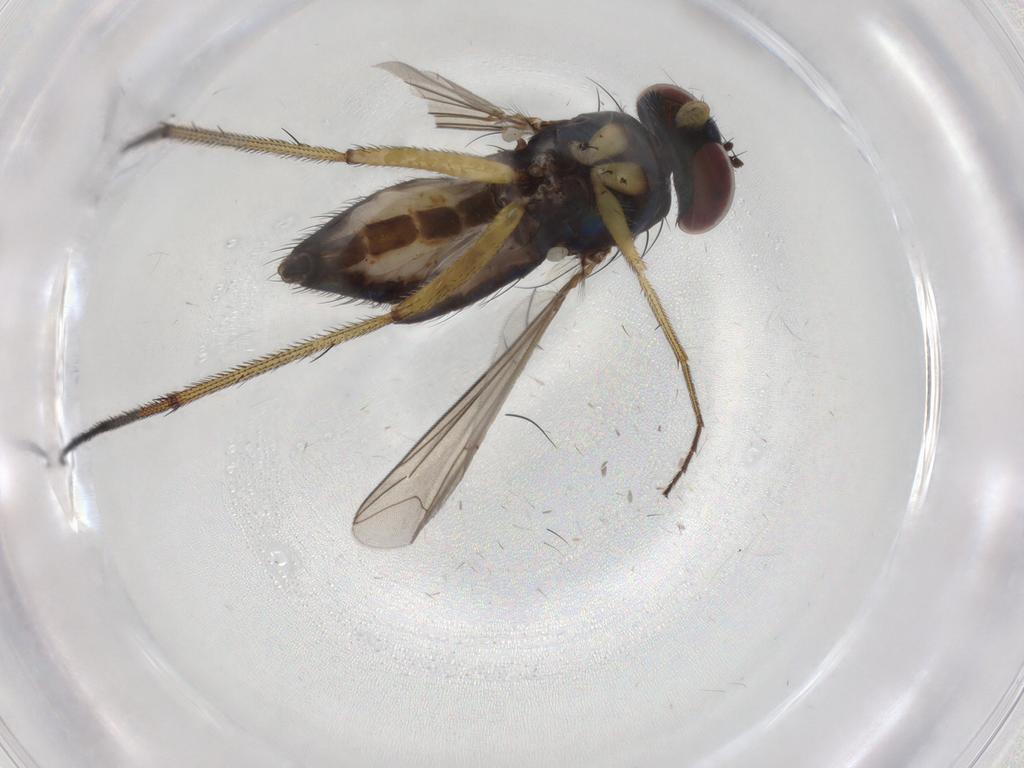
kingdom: Animalia
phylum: Arthropoda
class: Insecta
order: Diptera
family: Dolichopodidae
